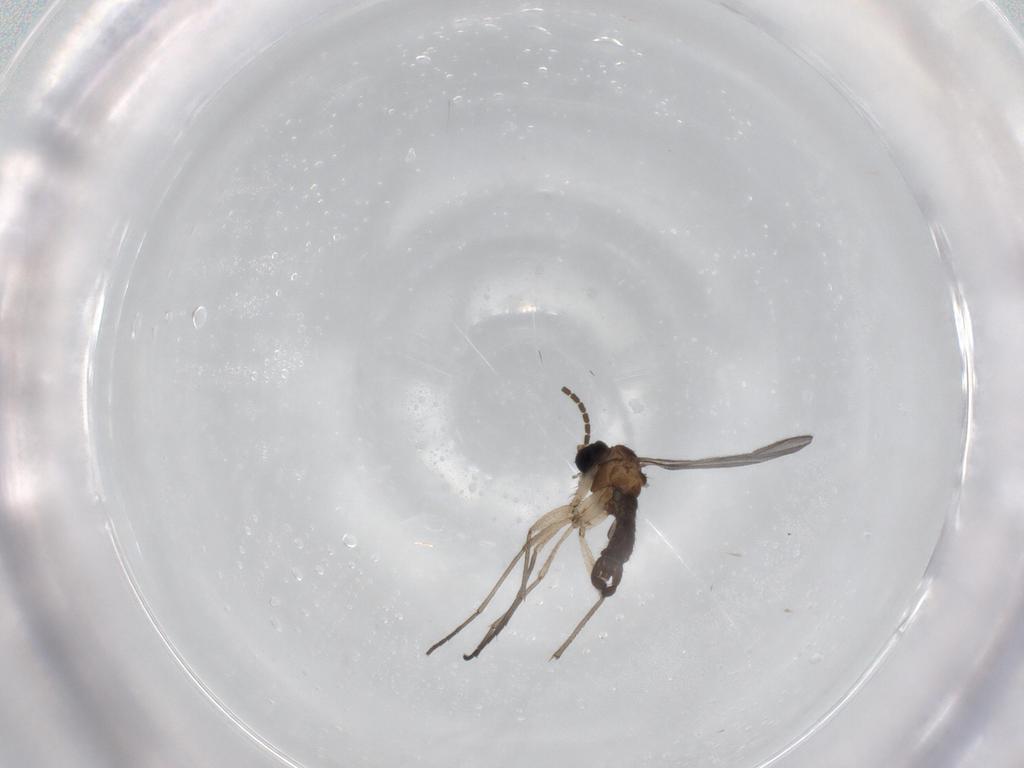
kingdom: Animalia
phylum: Arthropoda
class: Insecta
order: Diptera
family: Sciaridae
